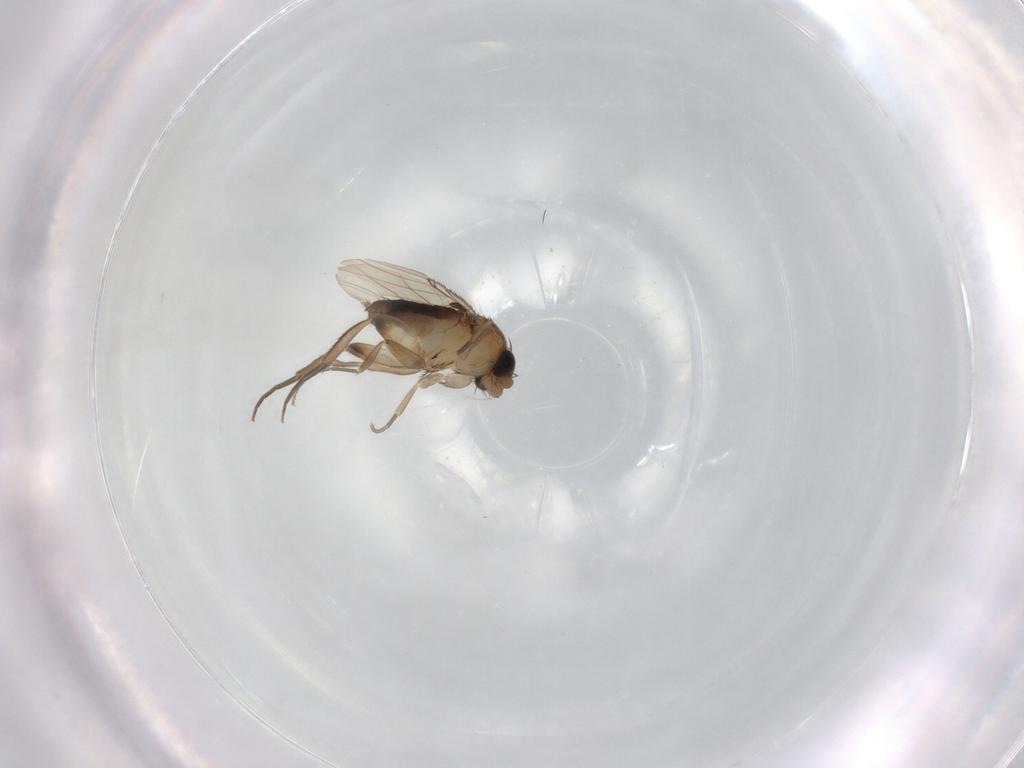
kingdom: Animalia
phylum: Arthropoda
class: Insecta
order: Diptera
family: Phoridae
